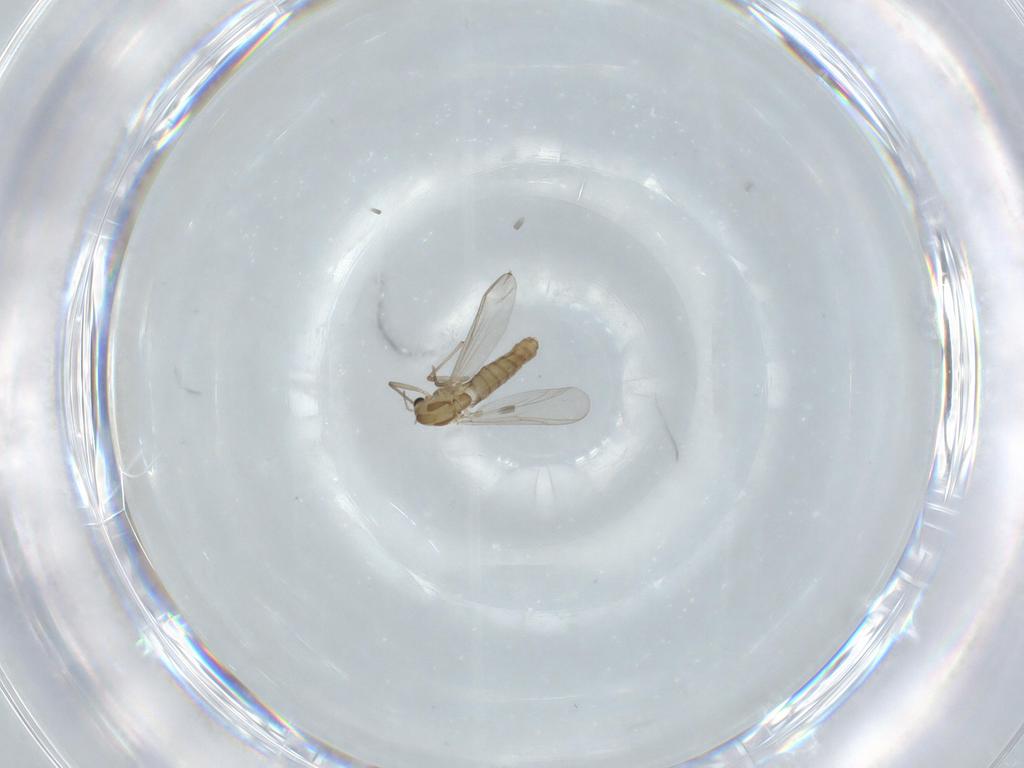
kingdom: Animalia
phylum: Arthropoda
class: Insecta
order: Diptera
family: Chironomidae
